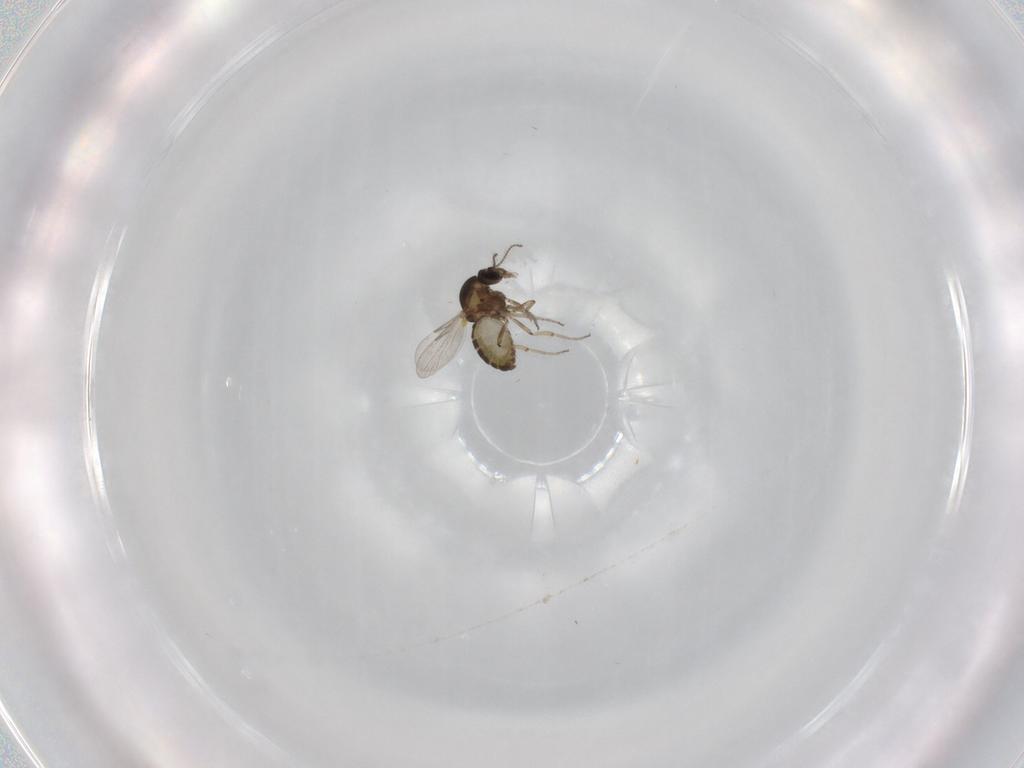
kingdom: Animalia
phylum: Arthropoda
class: Insecta
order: Diptera
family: Ceratopogonidae
